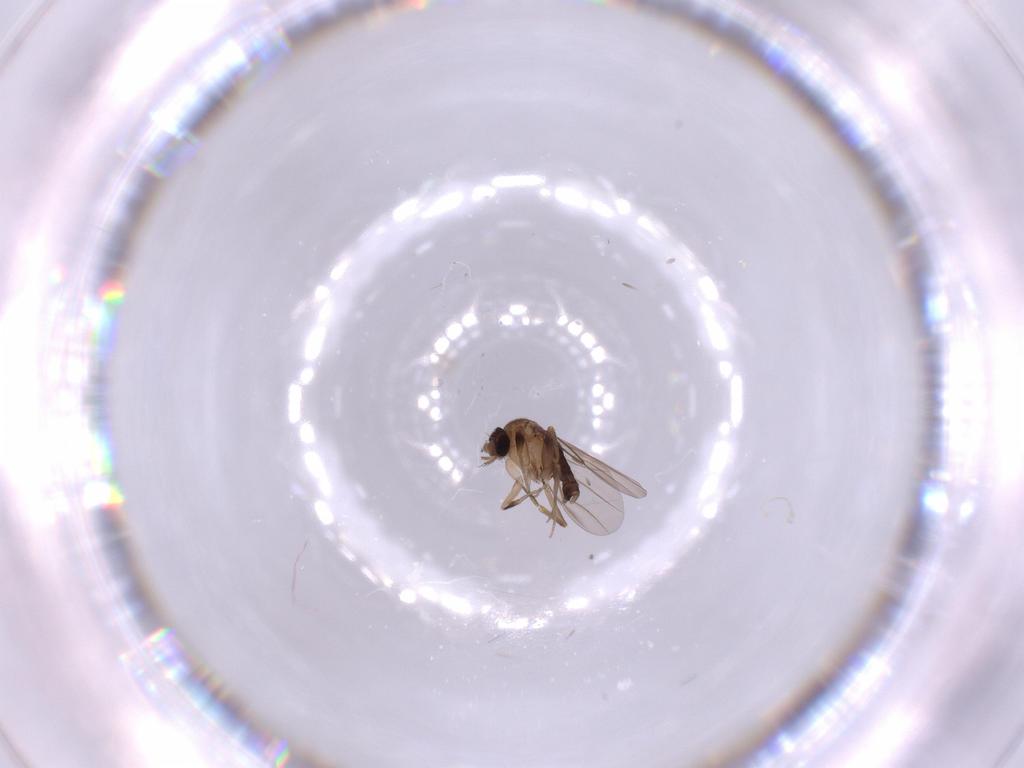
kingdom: Animalia
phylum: Arthropoda
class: Insecta
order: Diptera
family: Phoridae
